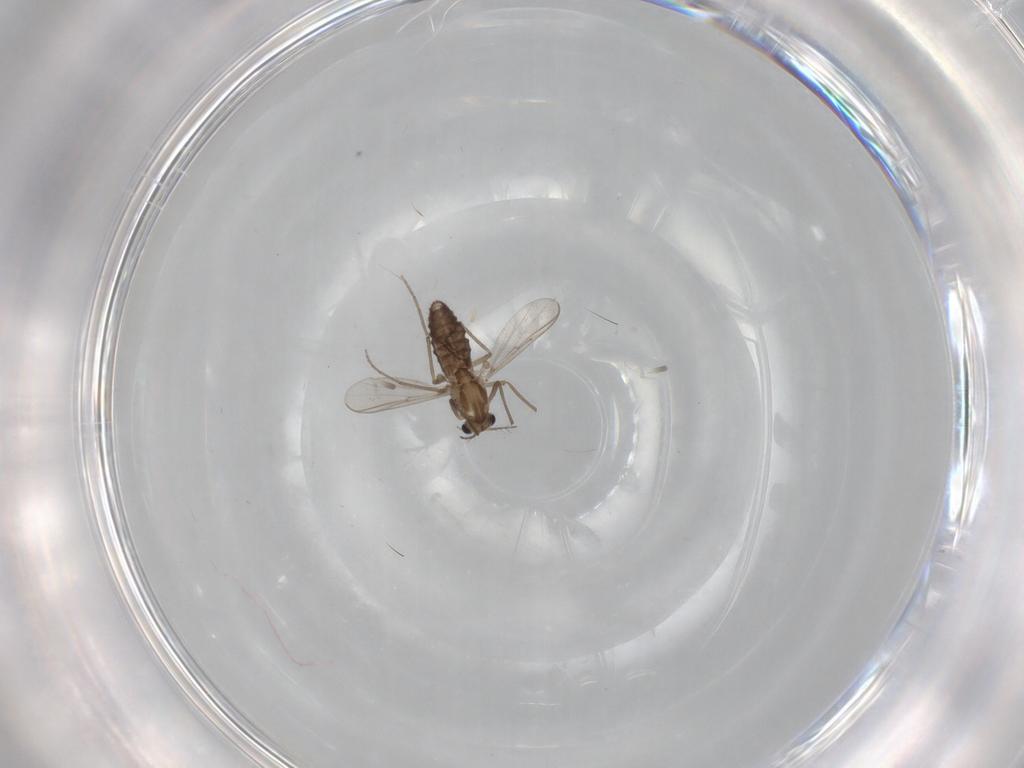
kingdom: Animalia
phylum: Arthropoda
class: Insecta
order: Diptera
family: Chironomidae
